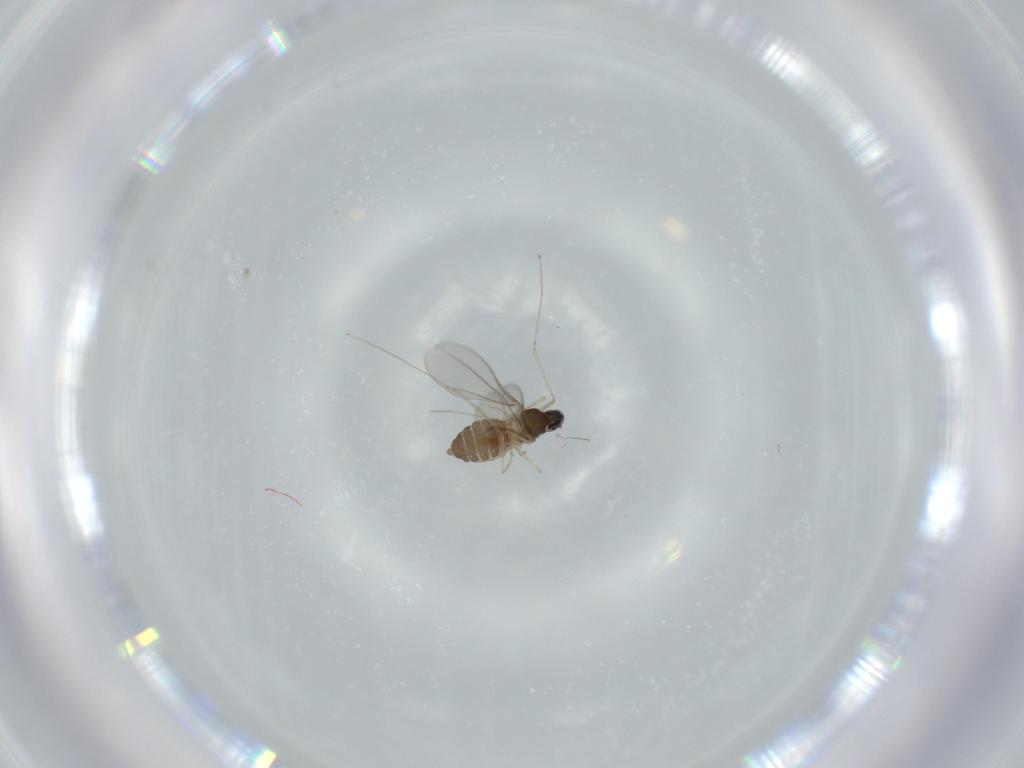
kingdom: Animalia
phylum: Arthropoda
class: Insecta
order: Diptera
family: Cecidomyiidae
